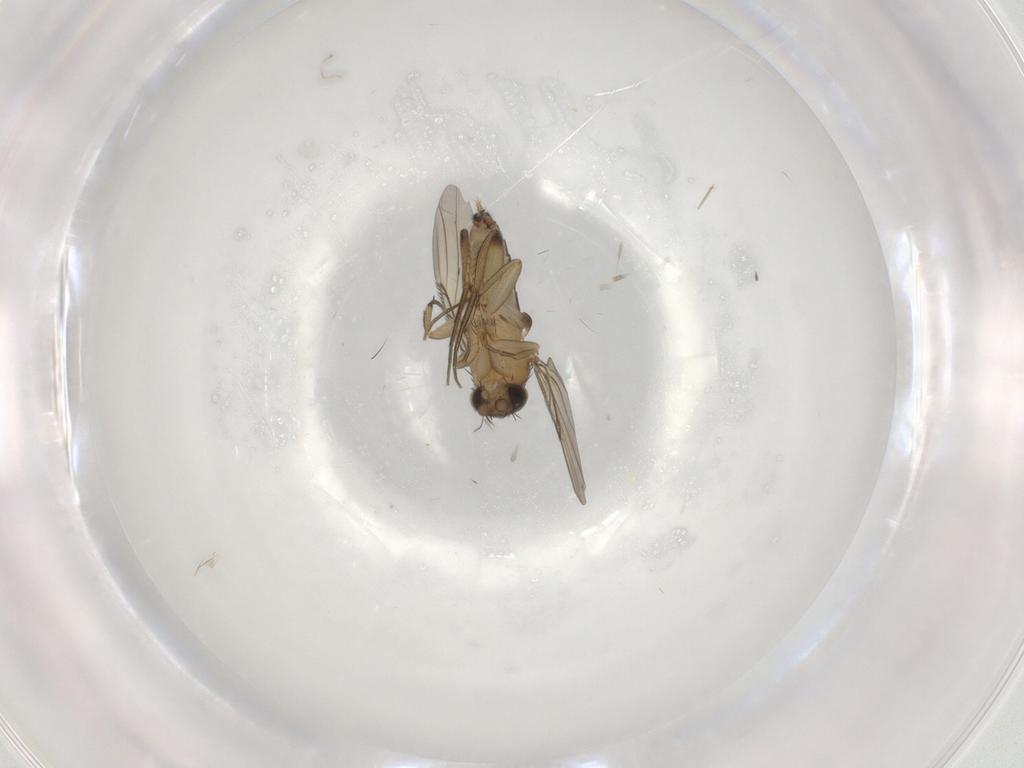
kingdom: Animalia
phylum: Arthropoda
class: Insecta
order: Diptera
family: Phoridae
